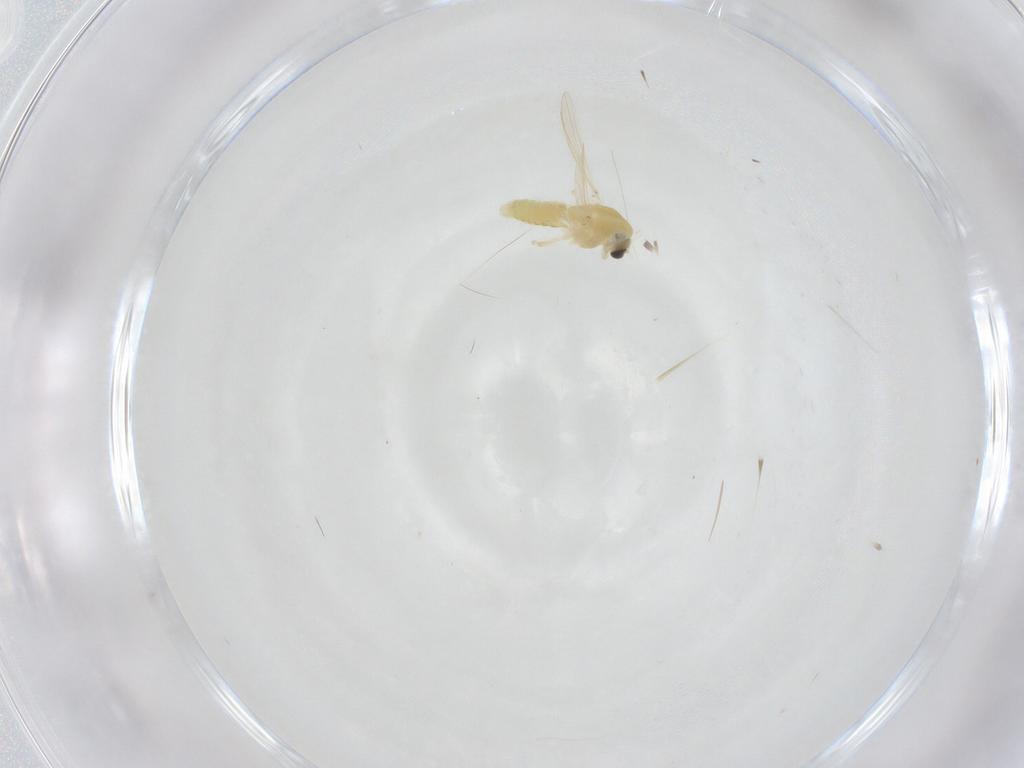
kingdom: Animalia
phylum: Arthropoda
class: Insecta
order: Diptera
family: Chironomidae
